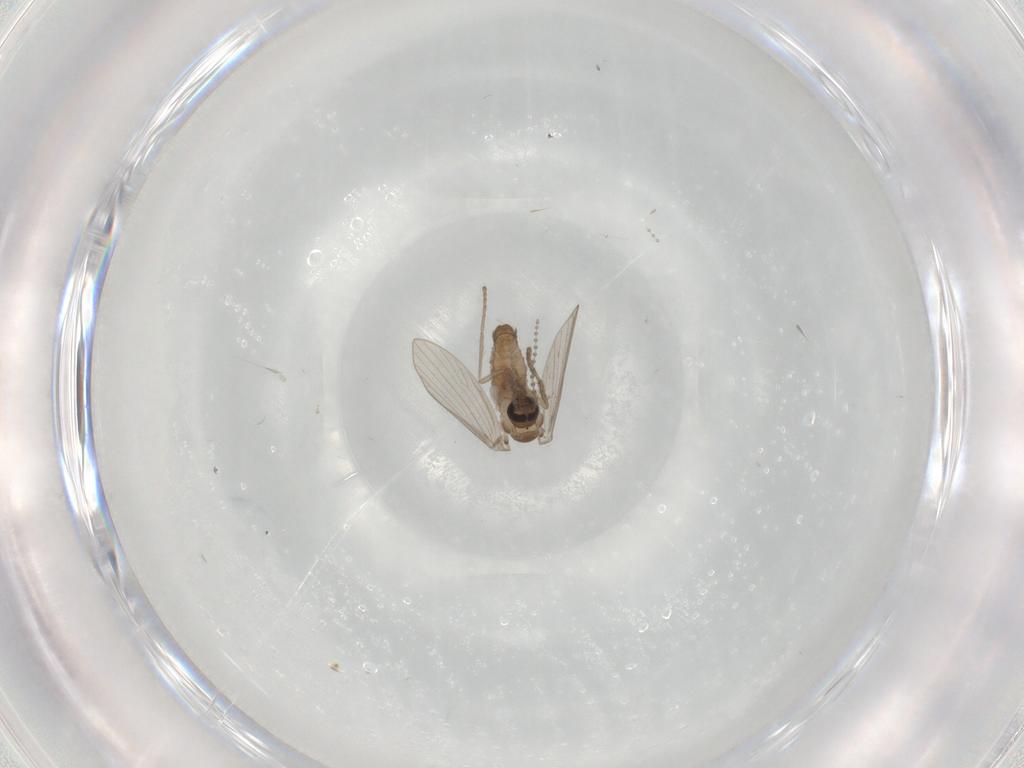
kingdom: Animalia
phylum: Arthropoda
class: Insecta
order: Diptera
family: Psychodidae
